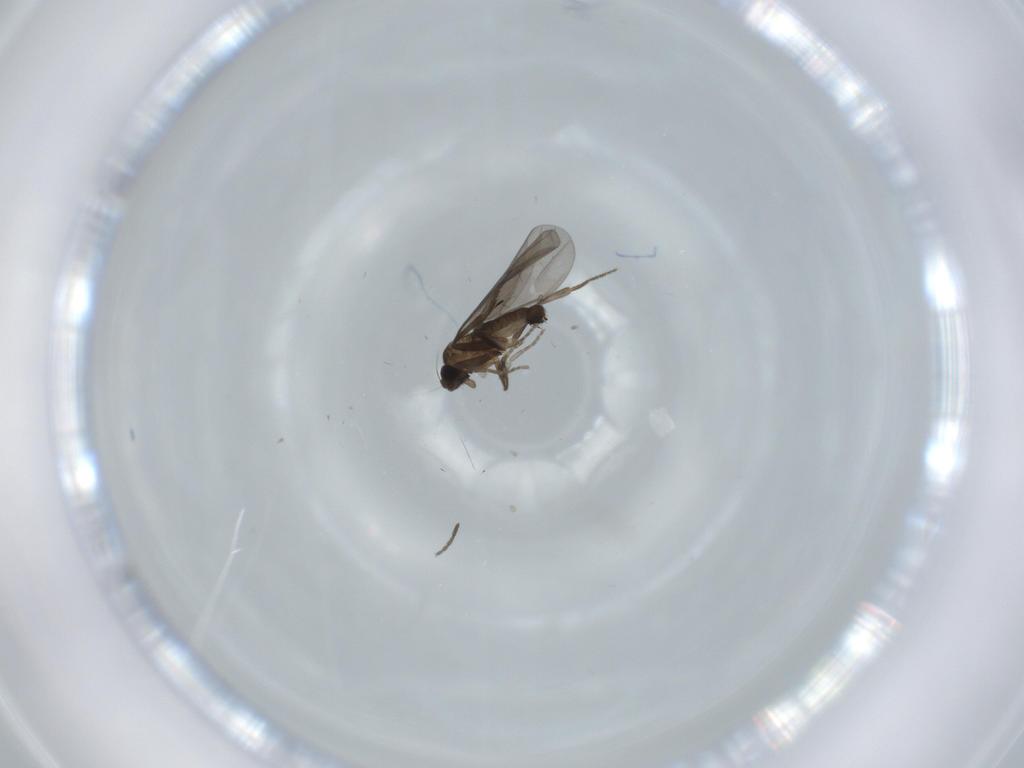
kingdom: Animalia
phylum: Arthropoda
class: Insecta
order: Diptera
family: Phoridae
